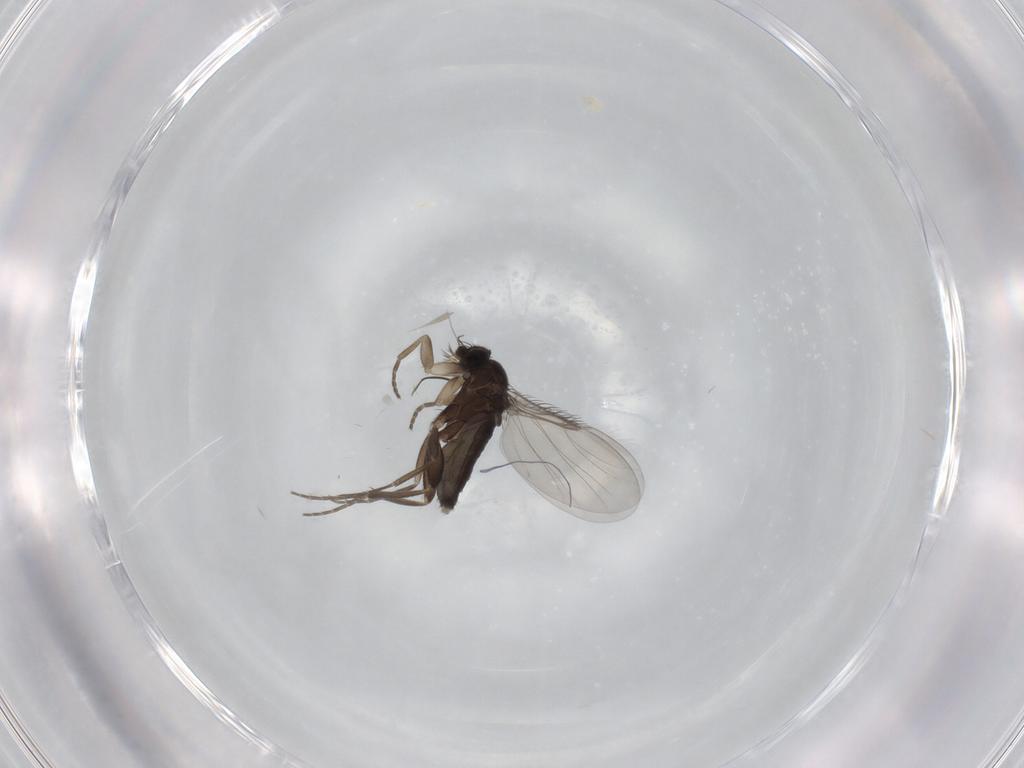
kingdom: Animalia
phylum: Arthropoda
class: Insecta
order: Diptera
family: Phoridae
